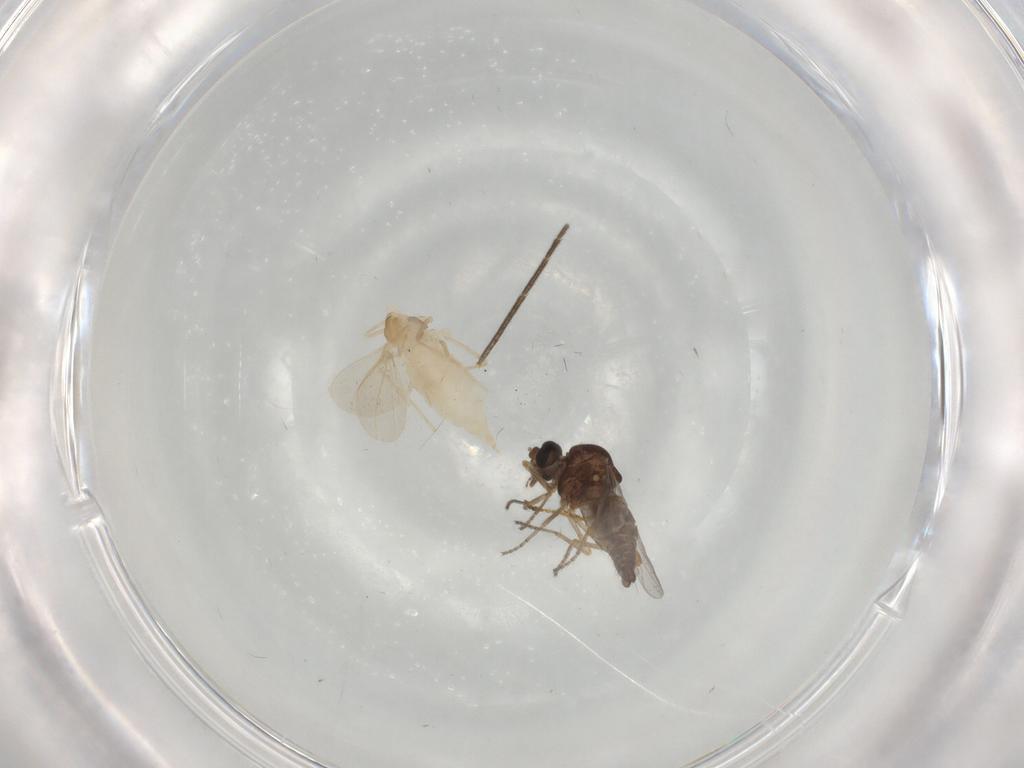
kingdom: Animalia
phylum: Arthropoda
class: Insecta
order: Diptera
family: Cecidomyiidae
